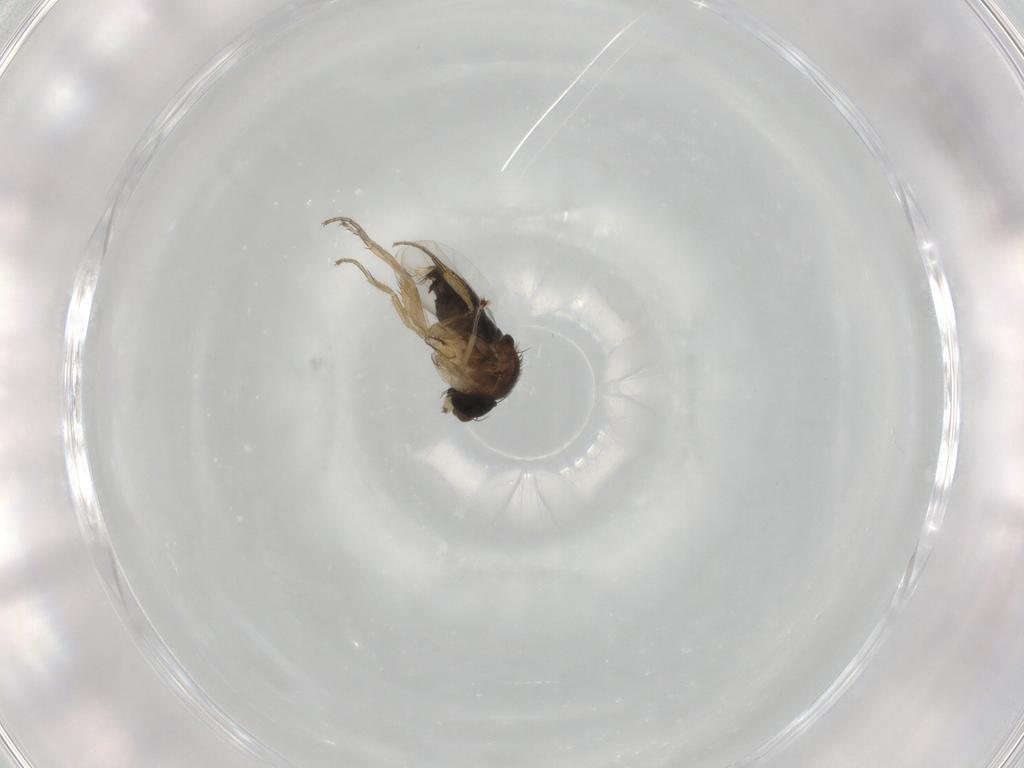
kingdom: Animalia
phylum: Arthropoda
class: Insecta
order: Diptera
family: Phoridae
